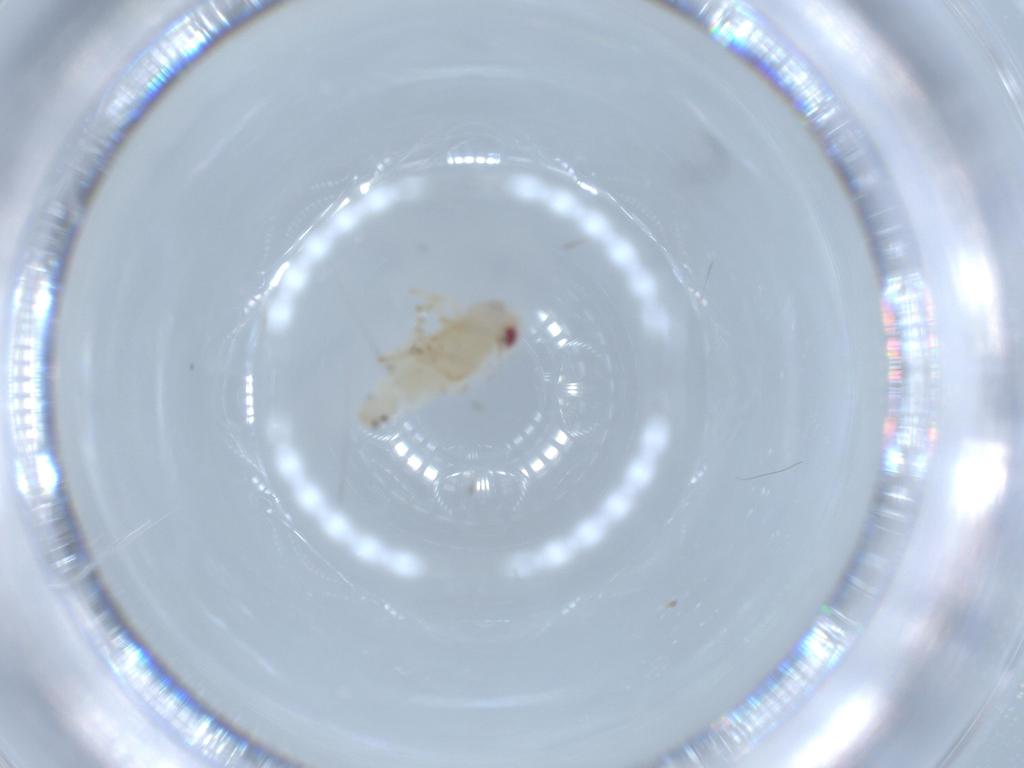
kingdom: Animalia
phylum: Arthropoda
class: Insecta
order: Hemiptera
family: Nogodinidae
